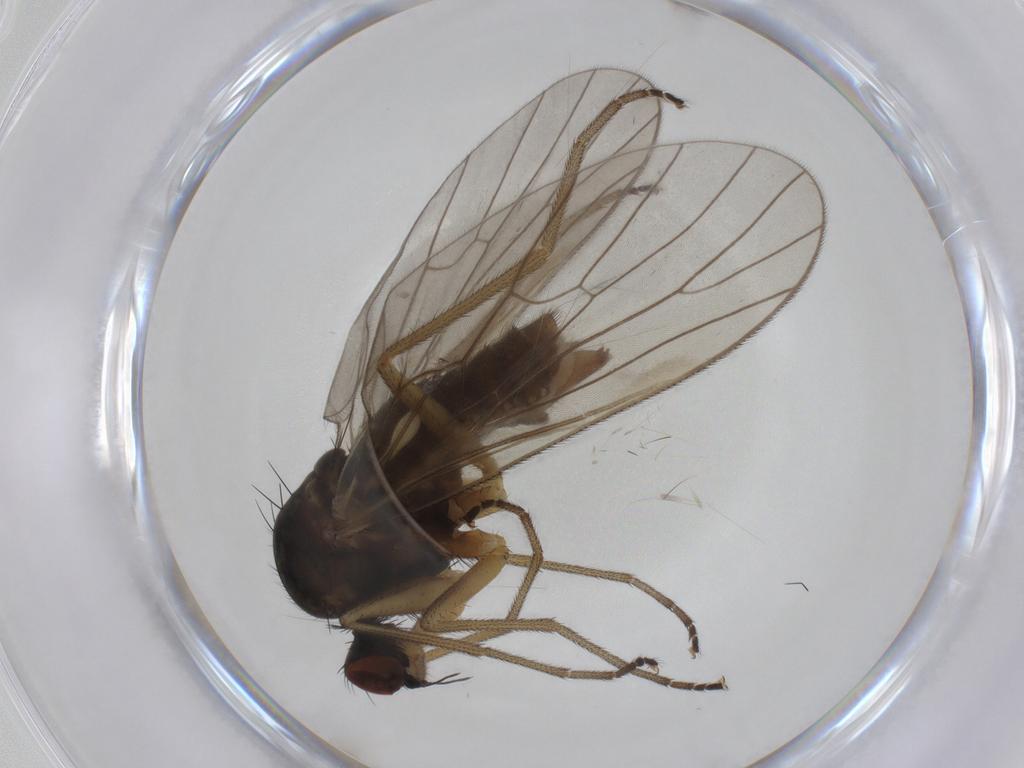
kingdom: Animalia
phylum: Arthropoda
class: Insecta
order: Diptera
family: Brachystomatidae
